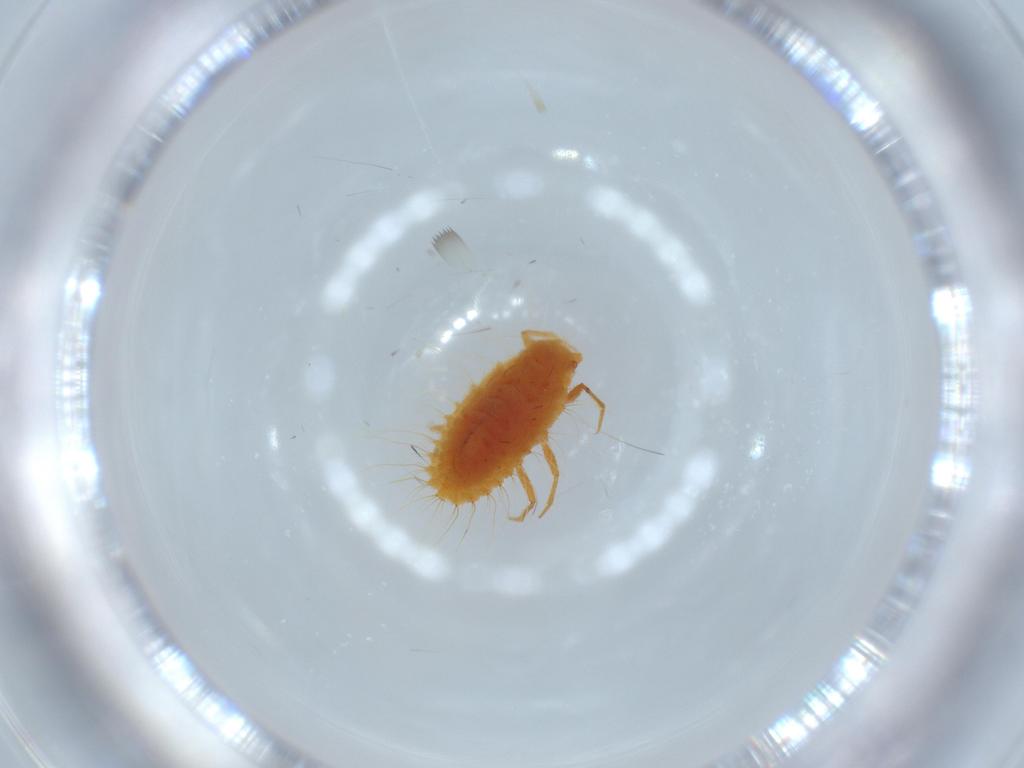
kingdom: Animalia
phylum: Arthropoda
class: Insecta
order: Hemiptera
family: Coccoidea_incertae_sedis
